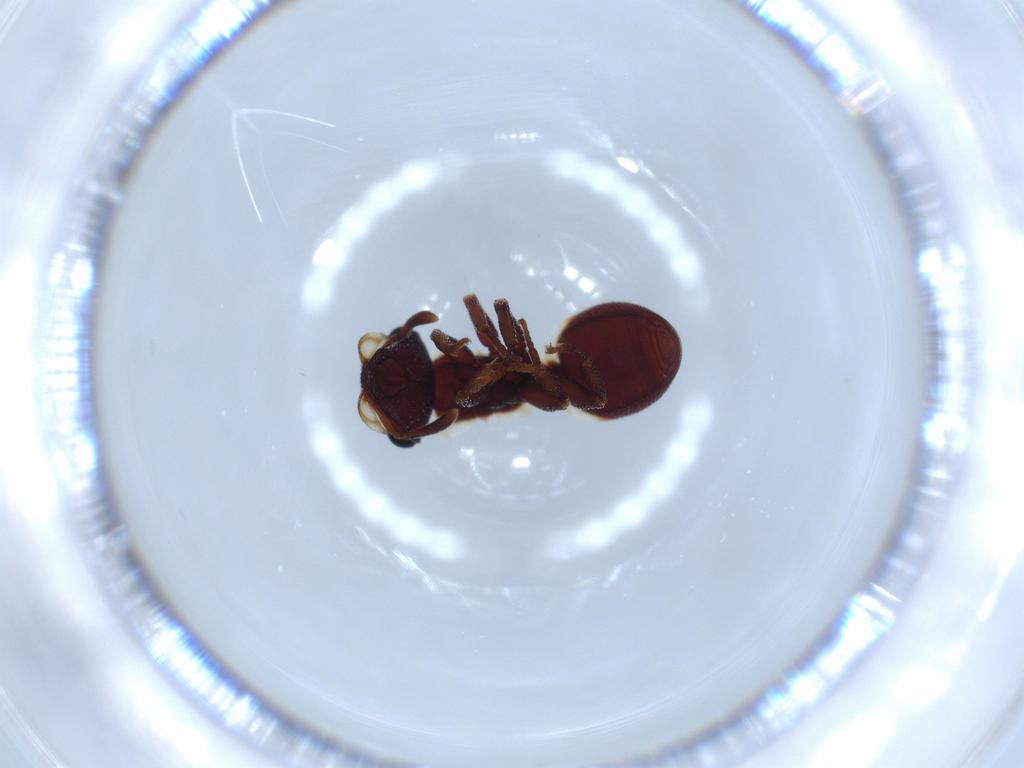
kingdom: Animalia
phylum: Arthropoda
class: Insecta
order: Hymenoptera
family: Formicidae
